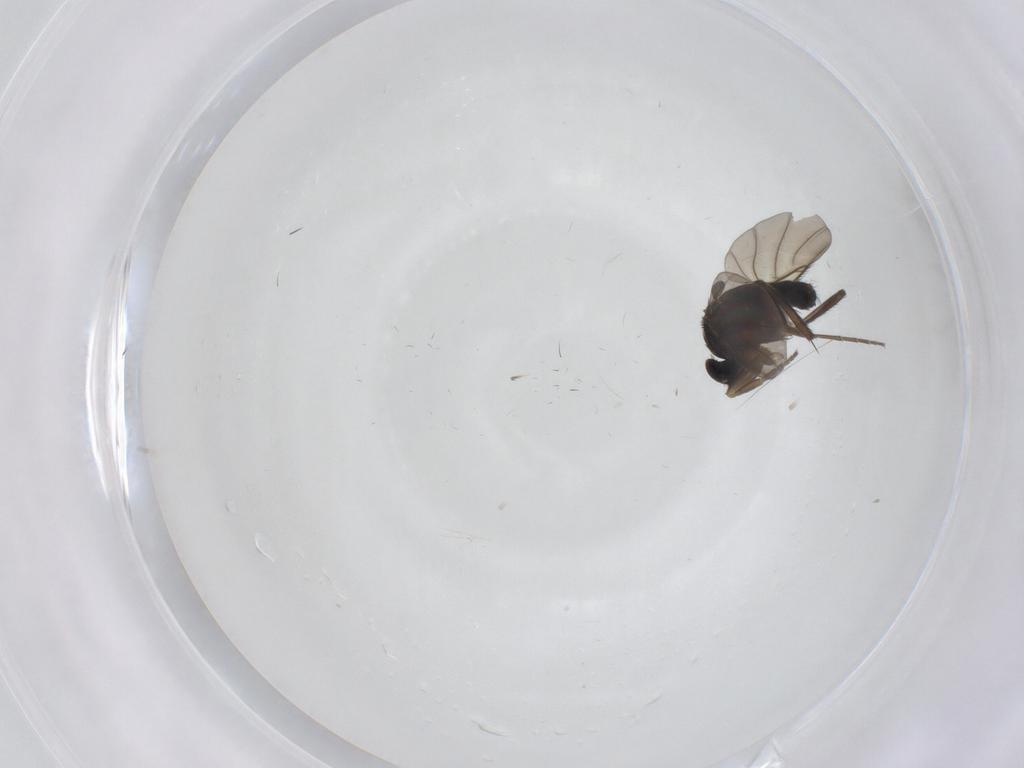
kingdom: Animalia
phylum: Arthropoda
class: Insecta
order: Diptera
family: Phoridae
